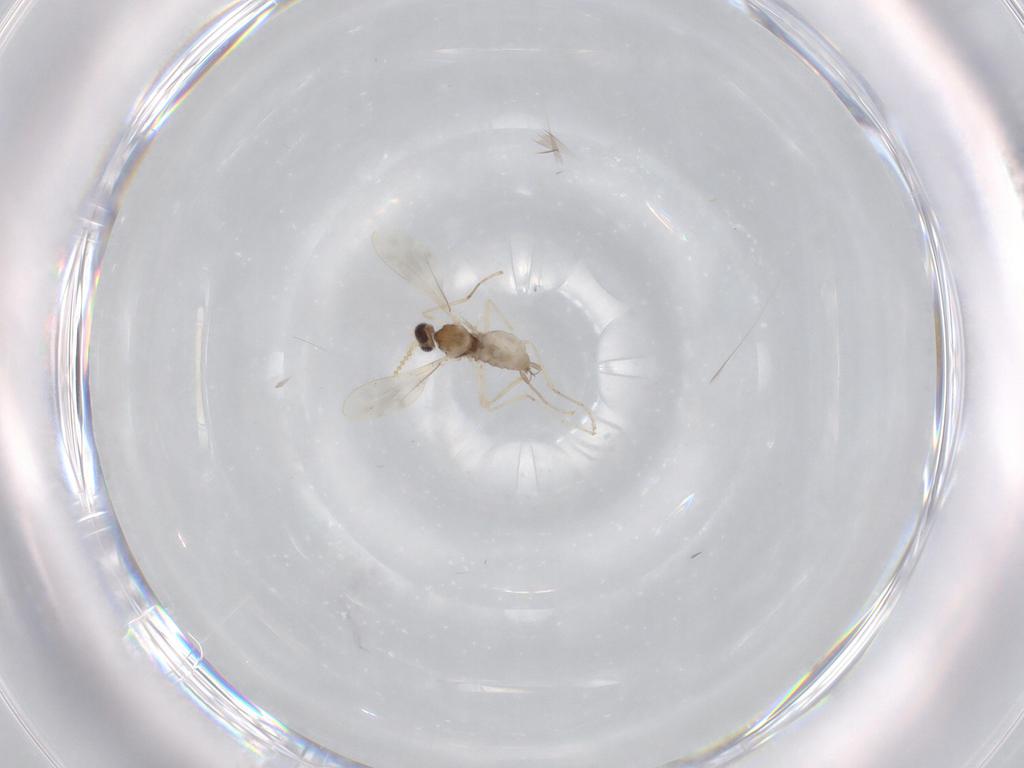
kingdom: Animalia
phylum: Arthropoda
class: Insecta
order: Diptera
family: Cecidomyiidae
